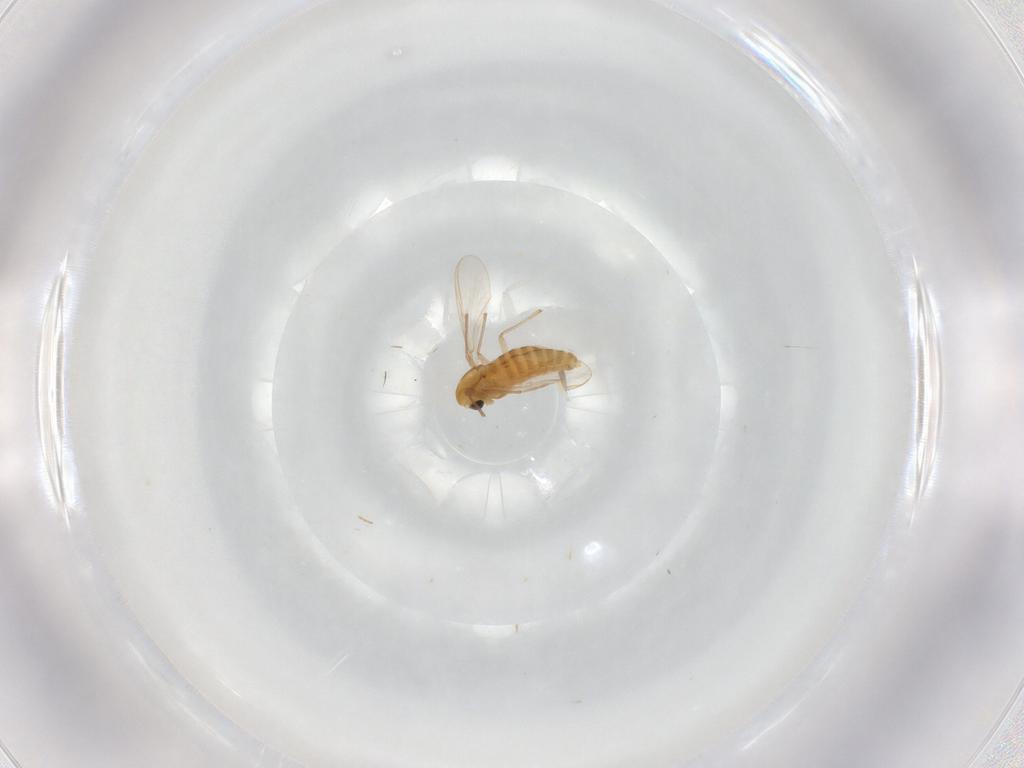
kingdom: Animalia
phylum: Arthropoda
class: Insecta
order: Diptera
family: Chironomidae
